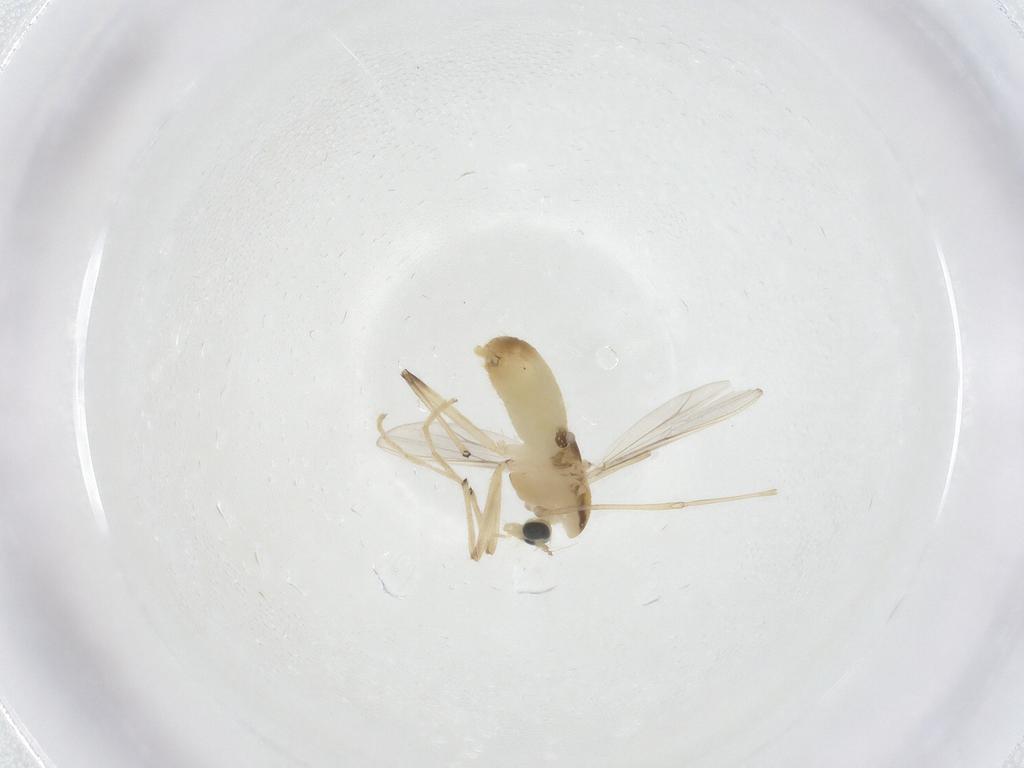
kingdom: Animalia
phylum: Arthropoda
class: Insecta
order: Diptera
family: Chironomidae
